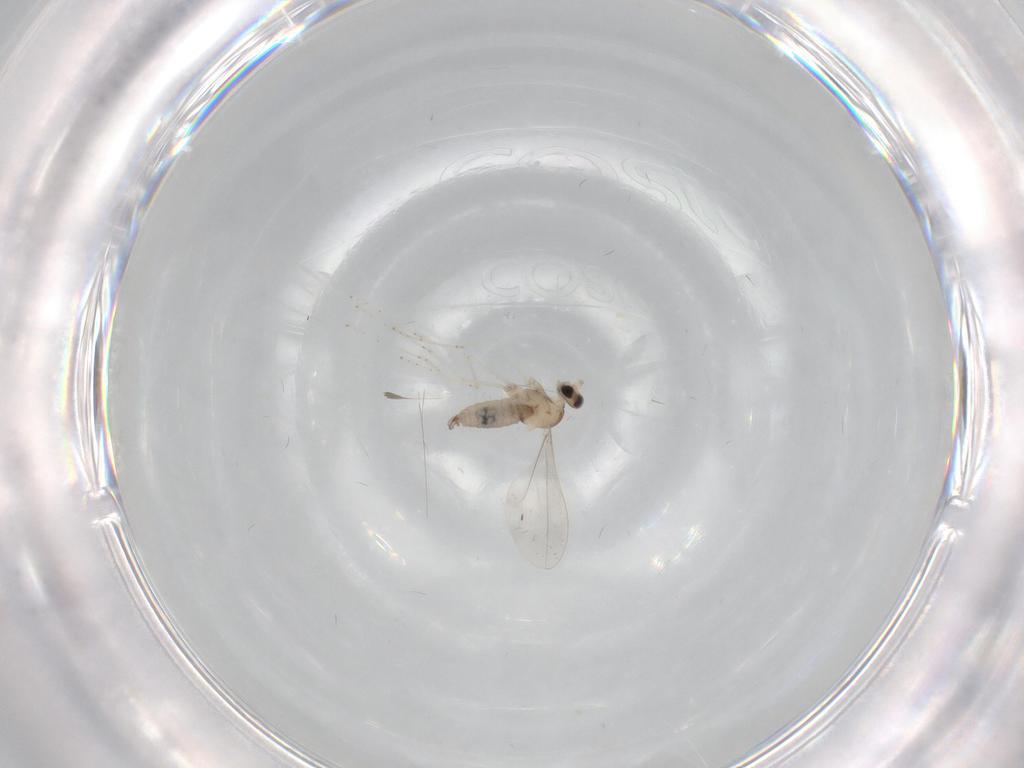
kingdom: Animalia
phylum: Arthropoda
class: Insecta
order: Diptera
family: Cecidomyiidae
